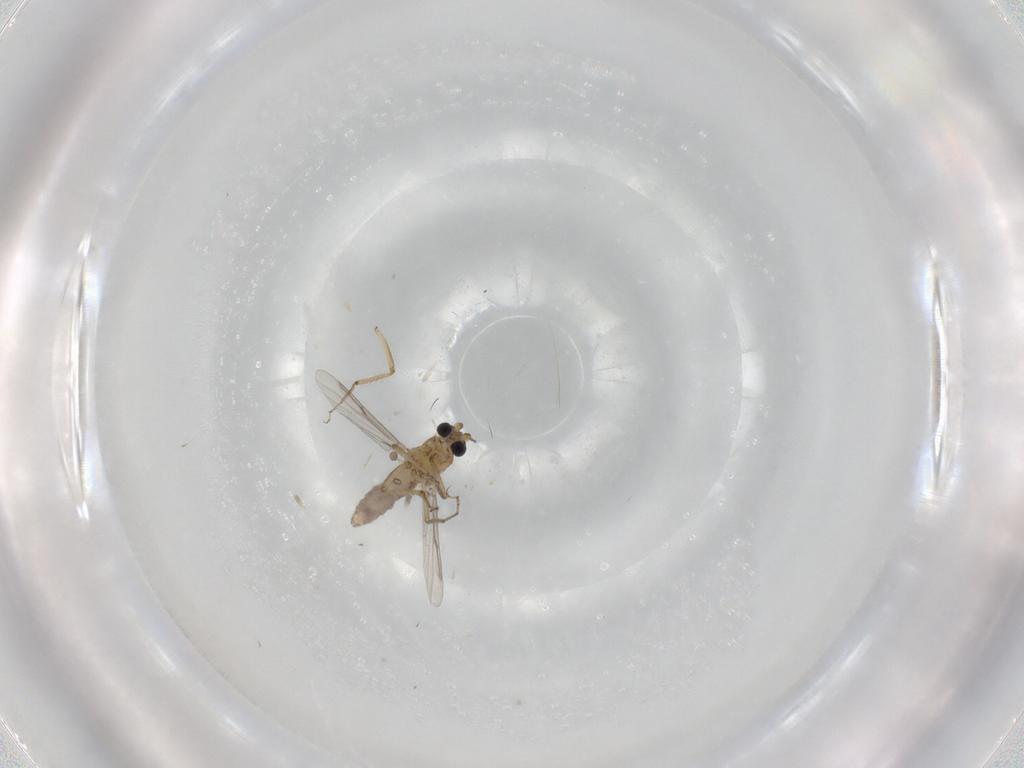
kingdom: Animalia
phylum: Arthropoda
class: Insecta
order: Diptera
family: Ceratopogonidae
